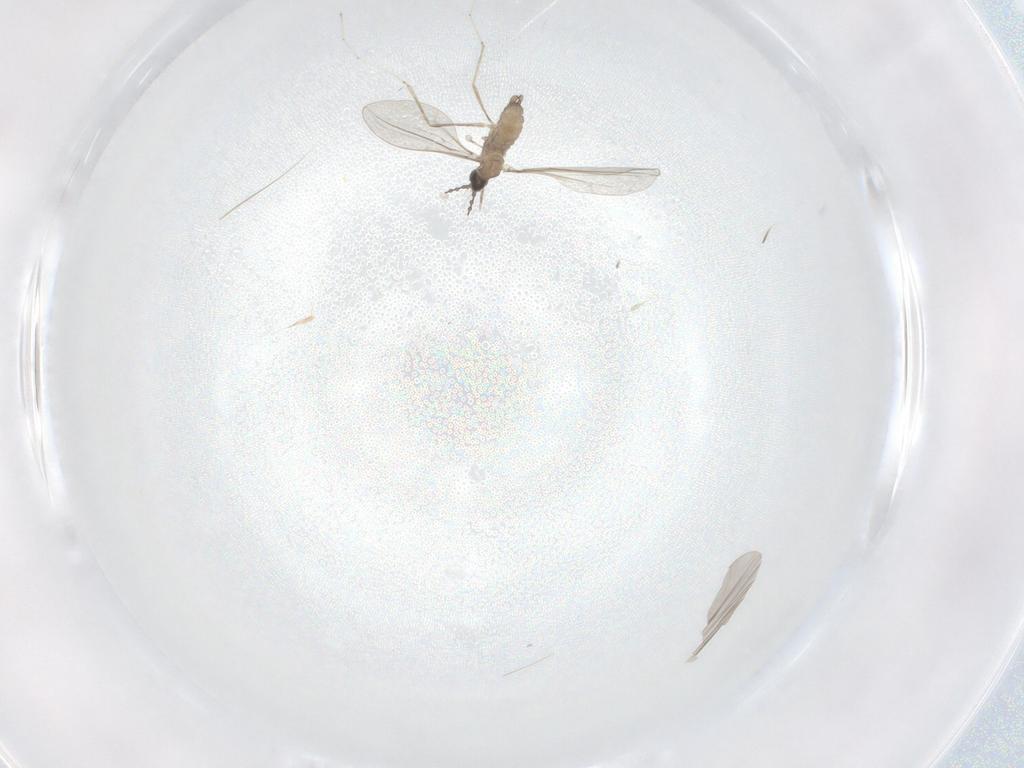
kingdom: Animalia
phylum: Arthropoda
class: Insecta
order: Diptera
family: Cecidomyiidae
